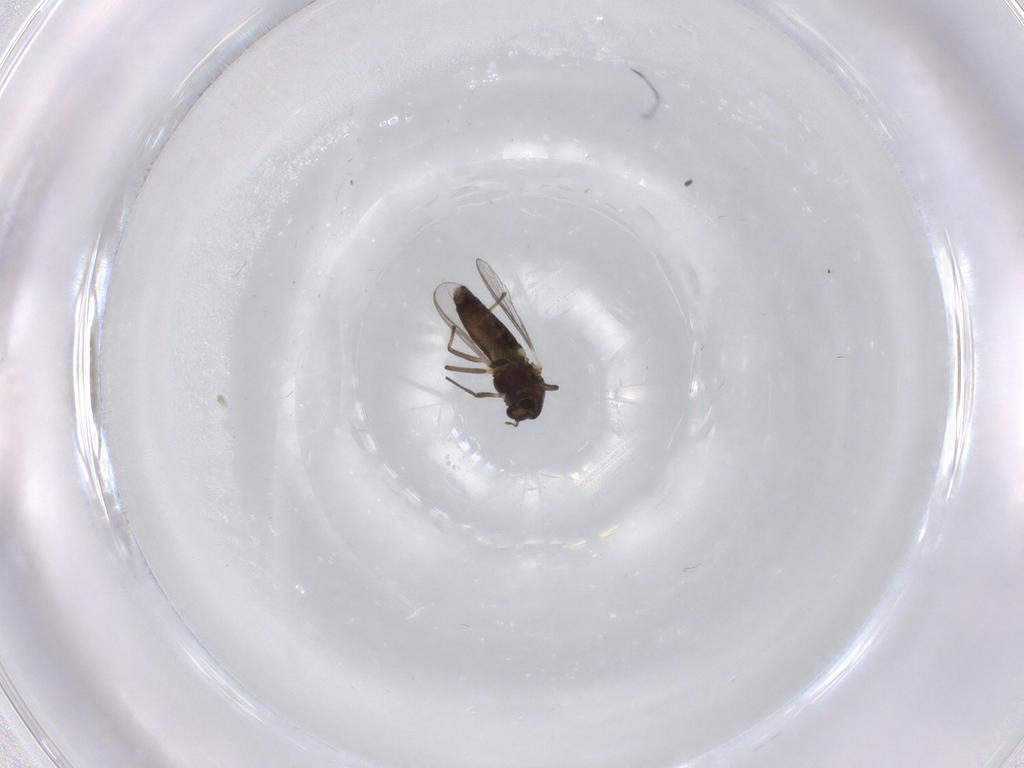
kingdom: Animalia
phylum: Arthropoda
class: Insecta
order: Diptera
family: Chironomidae
